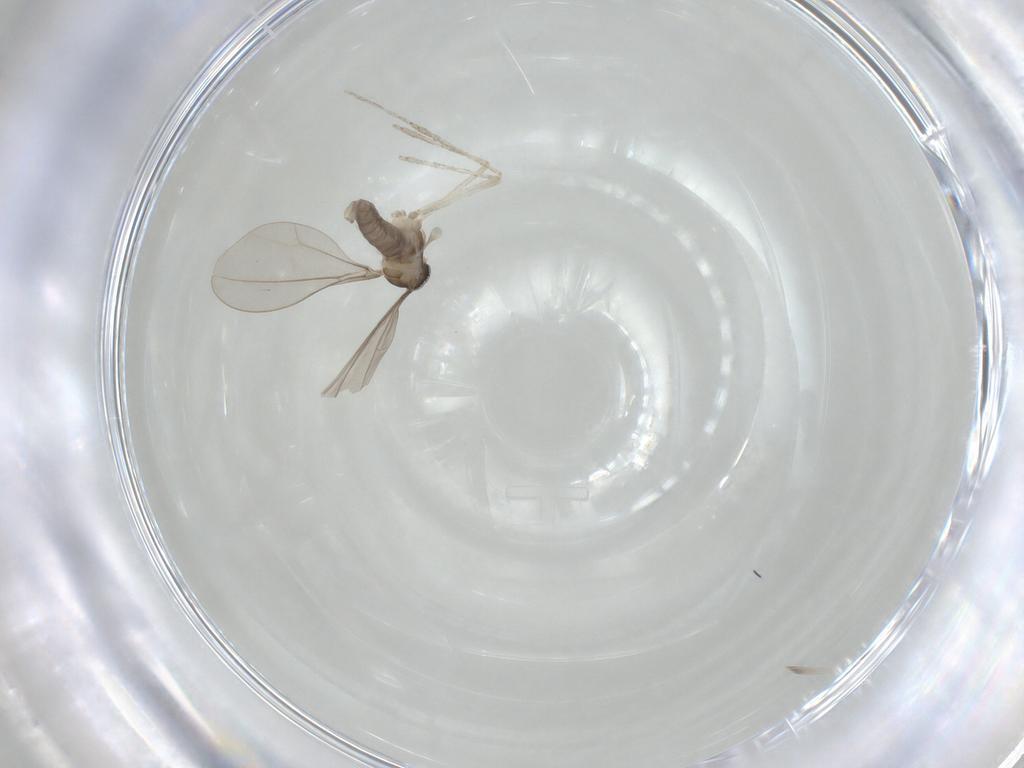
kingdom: Animalia
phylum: Arthropoda
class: Insecta
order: Diptera
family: Cecidomyiidae
